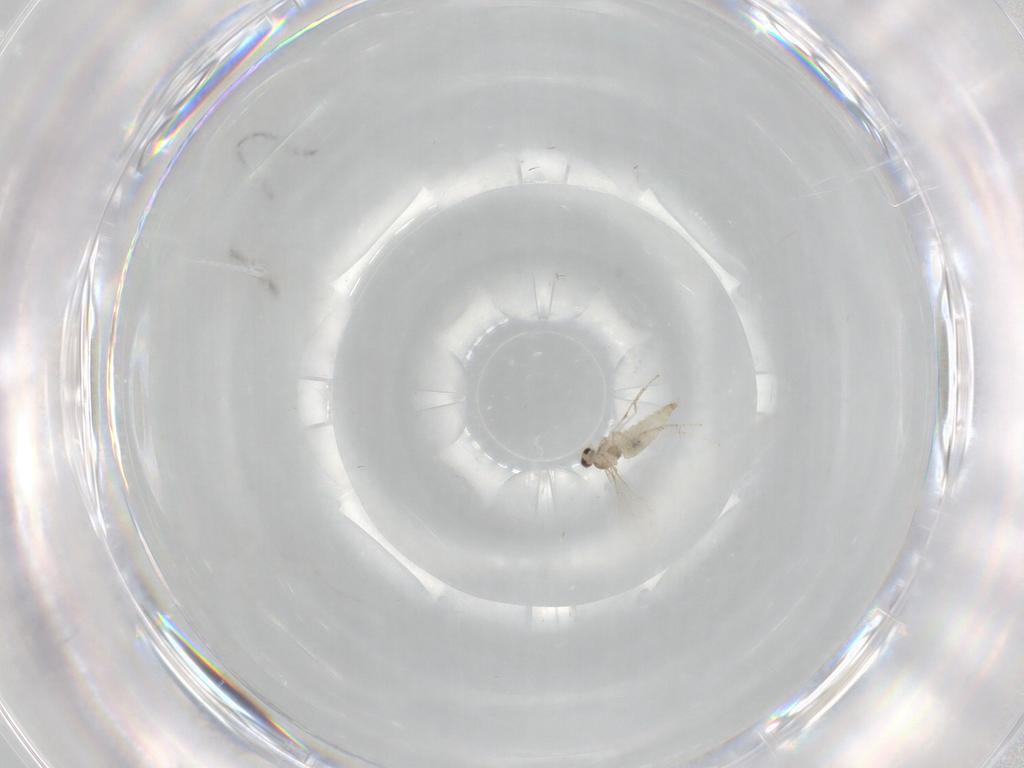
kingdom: Animalia
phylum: Arthropoda
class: Insecta
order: Diptera
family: Cecidomyiidae
